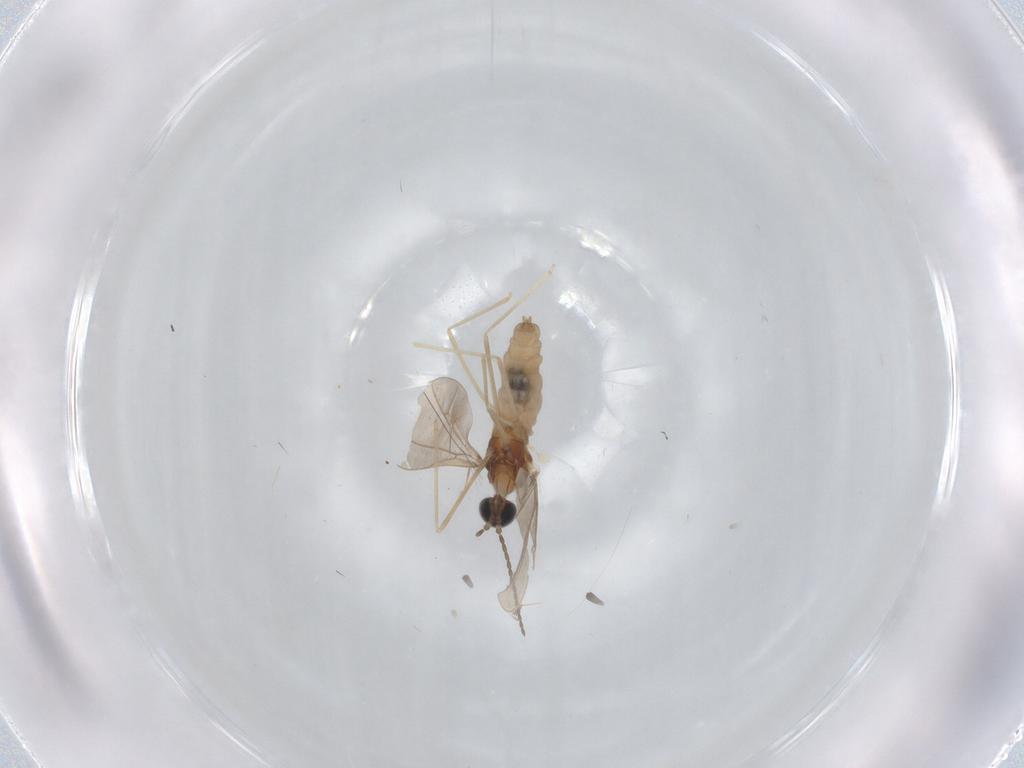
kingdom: Animalia
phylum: Arthropoda
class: Insecta
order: Diptera
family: Cecidomyiidae
